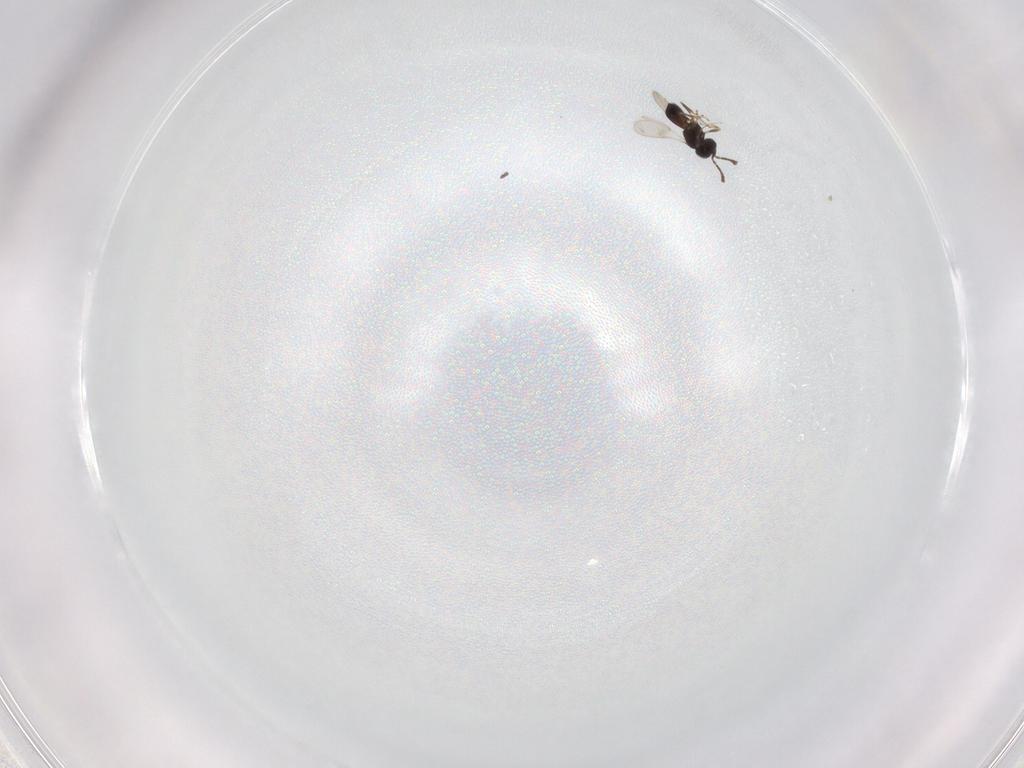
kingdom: Animalia
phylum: Arthropoda
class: Insecta
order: Hymenoptera
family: Scelionidae
